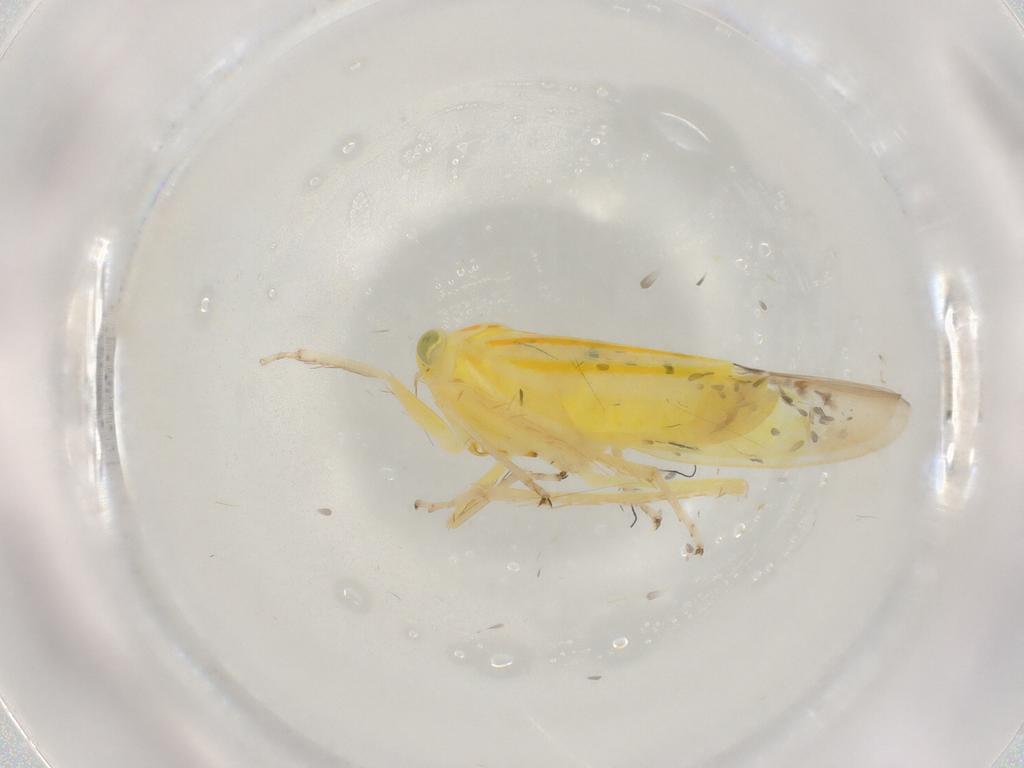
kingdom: Animalia
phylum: Arthropoda
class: Insecta
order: Hemiptera
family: Cicadellidae
